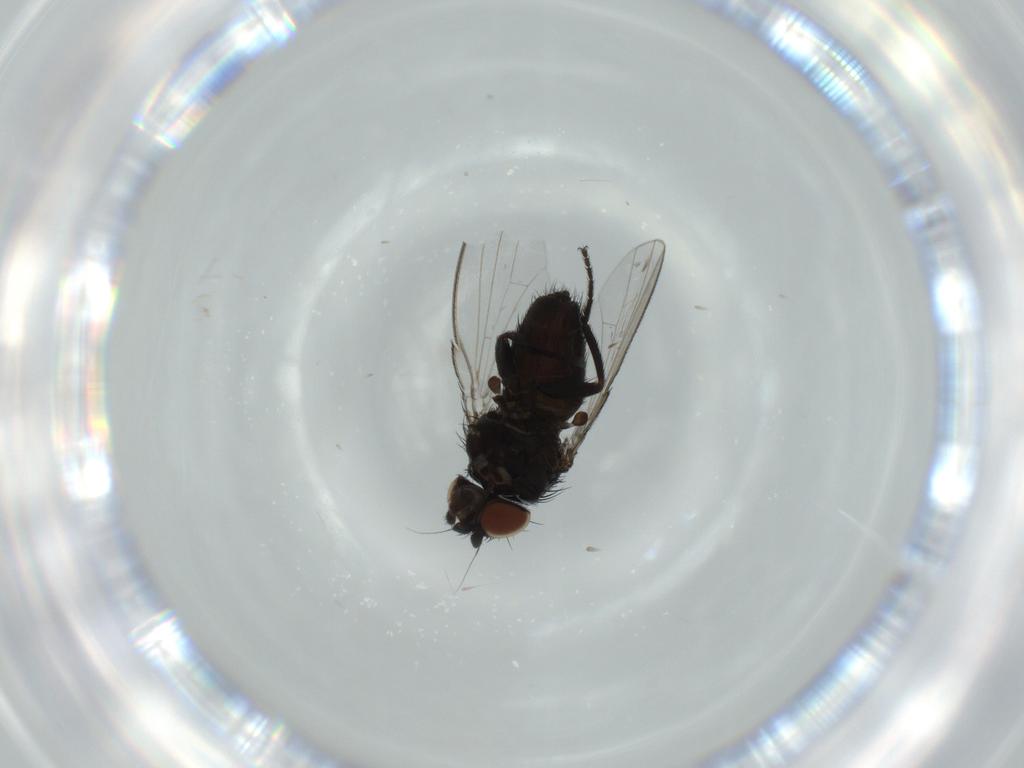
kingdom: Animalia
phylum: Arthropoda
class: Insecta
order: Diptera
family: Milichiidae
